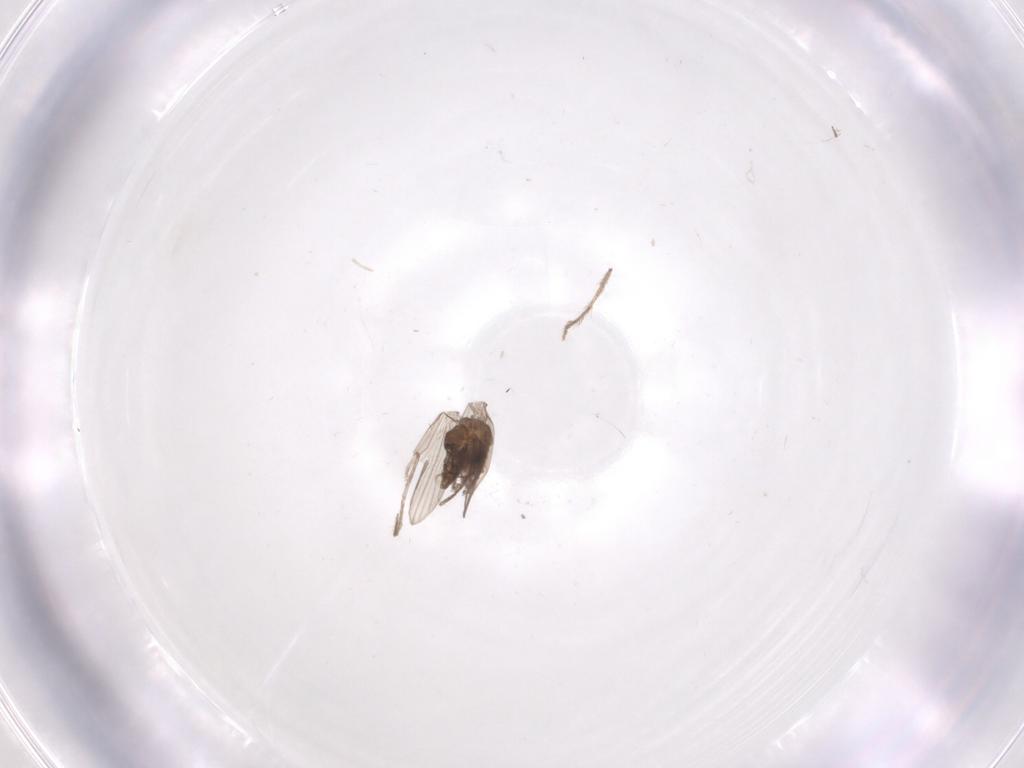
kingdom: Animalia
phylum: Arthropoda
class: Insecta
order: Diptera
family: Psychodidae
